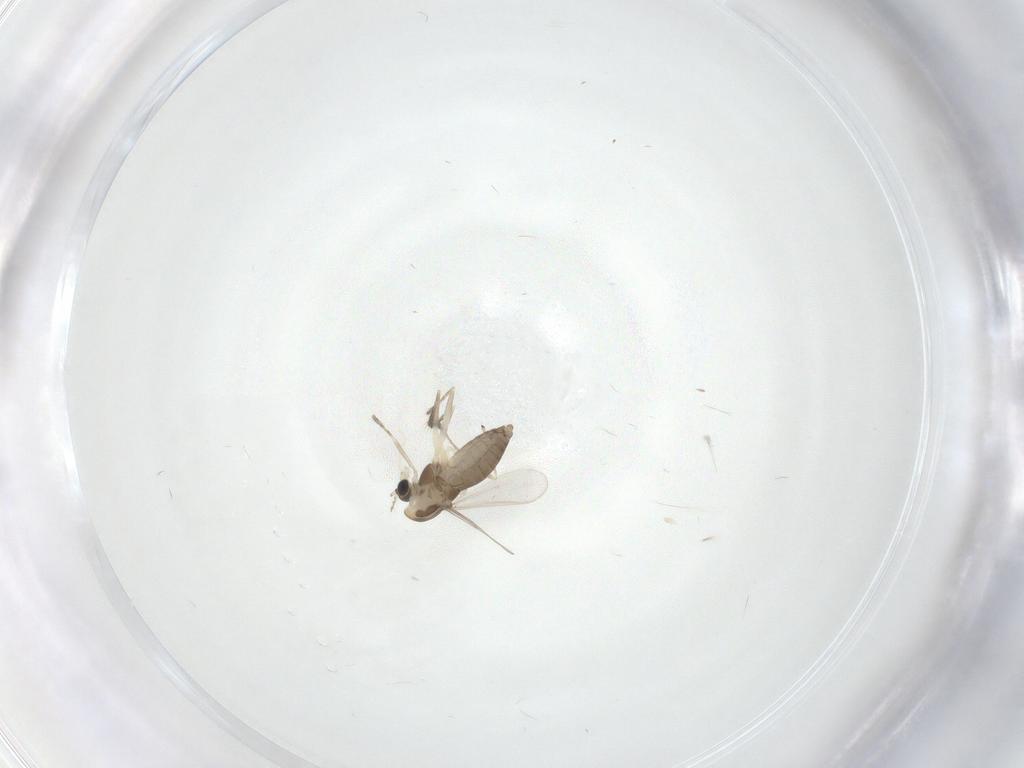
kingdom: Animalia
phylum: Arthropoda
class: Insecta
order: Diptera
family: Chironomidae
